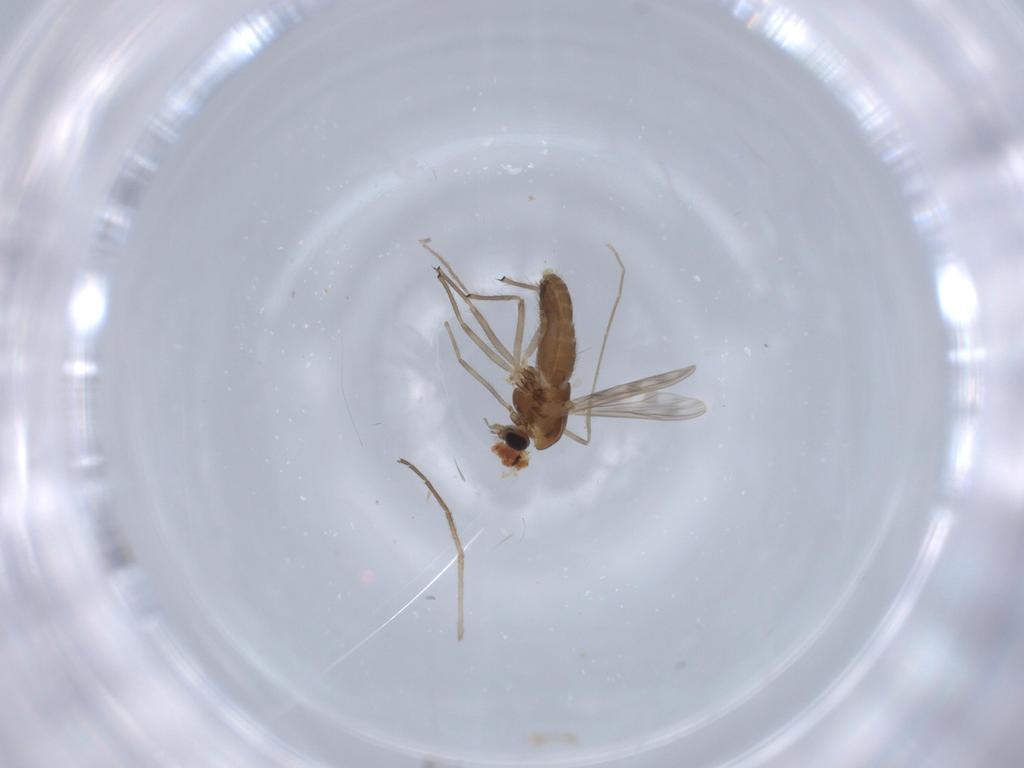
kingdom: Animalia
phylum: Arthropoda
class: Insecta
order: Diptera
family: Chironomidae
